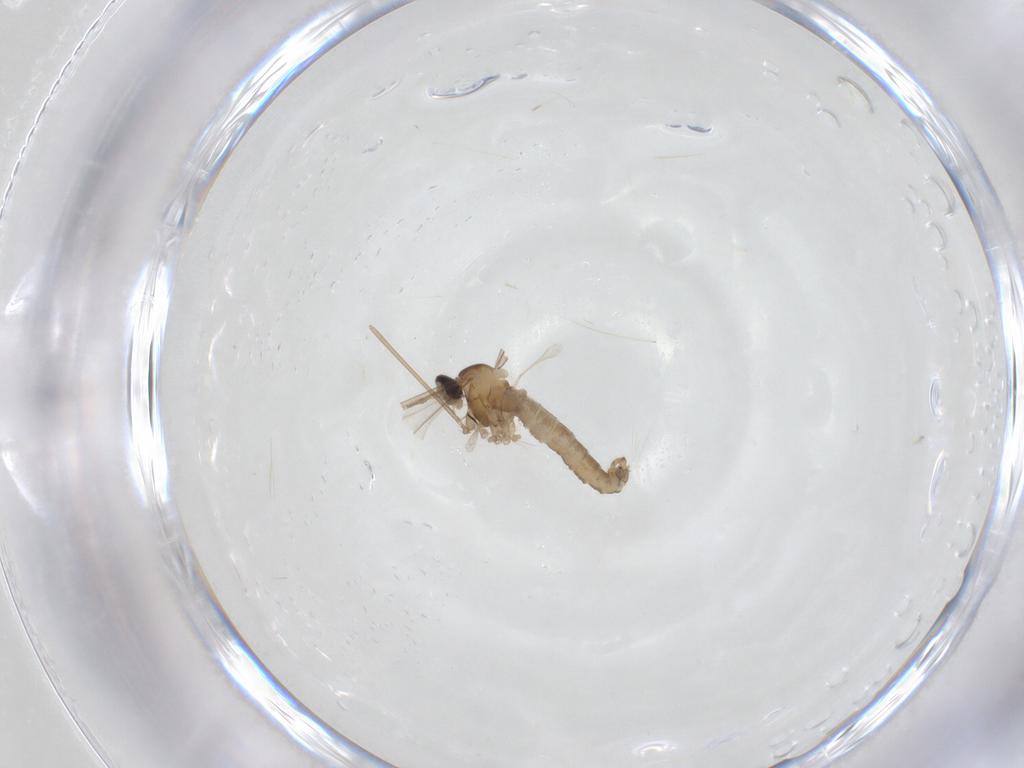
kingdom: Animalia
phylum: Arthropoda
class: Insecta
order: Diptera
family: Cecidomyiidae
